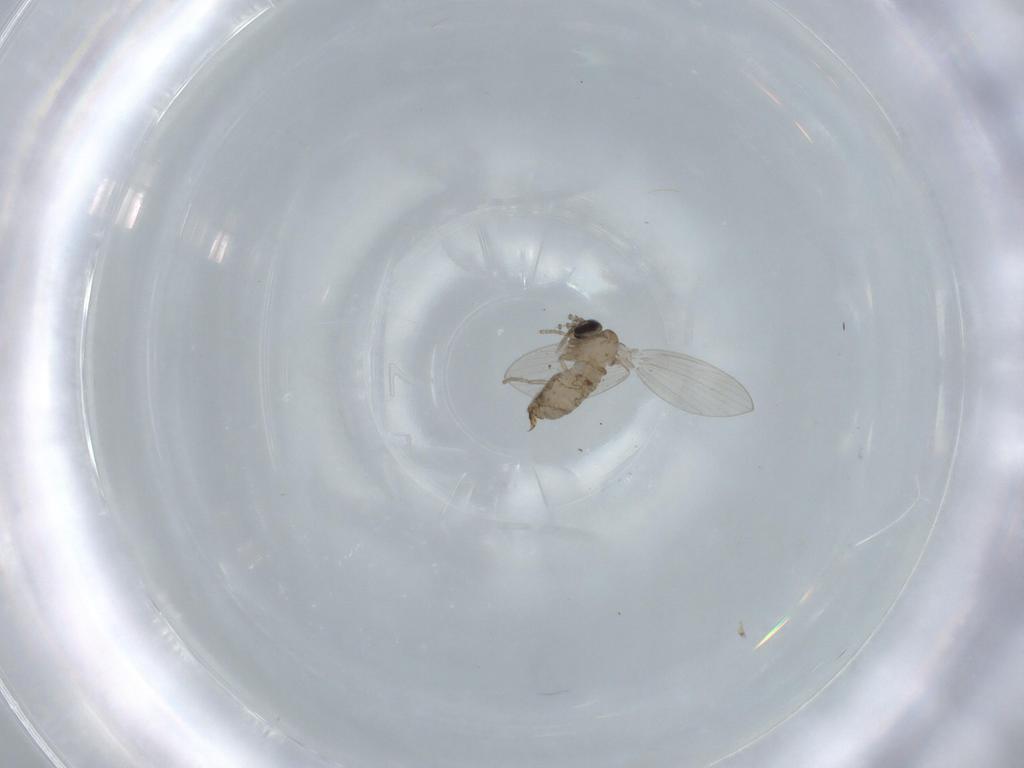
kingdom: Animalia
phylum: Arthropoda
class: Insecta
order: Diptera
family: Psychodidae
